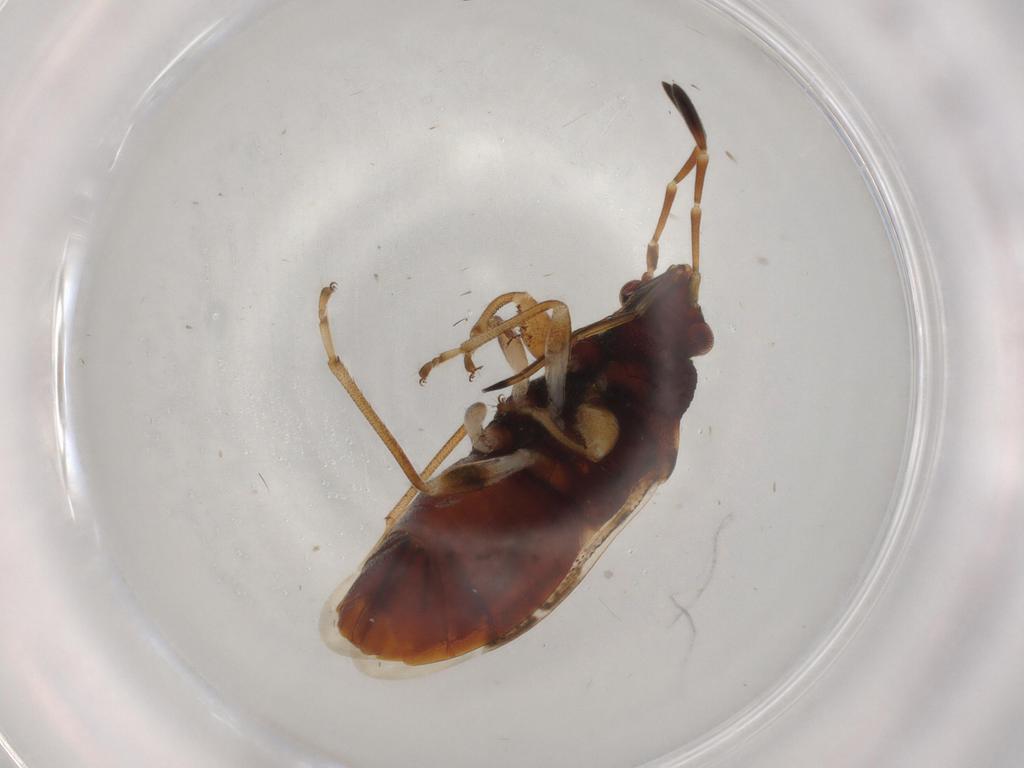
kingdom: Animalia
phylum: Arthropoda
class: Insecta
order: Hemiptera
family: Rhyparochromidae
